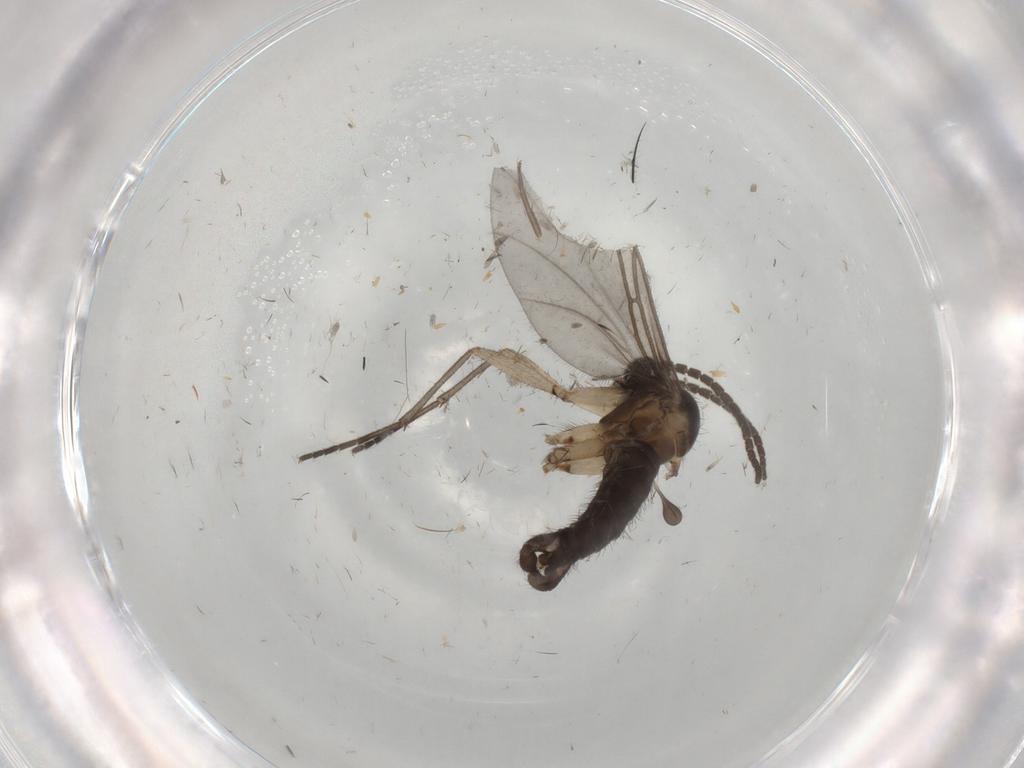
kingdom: Animalia
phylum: Arthropoda
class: Insecta
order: Diptera
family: Sciaridae
